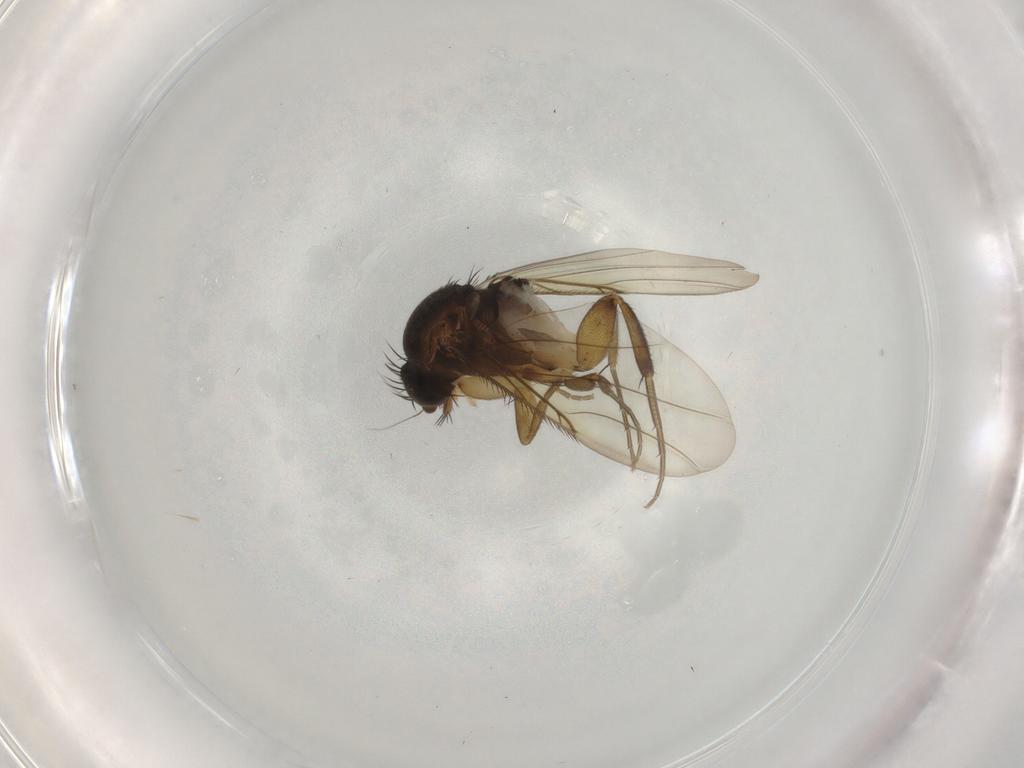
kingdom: Animalia
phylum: Arthropoda
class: Insecta
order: Diptera
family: Phoridae
